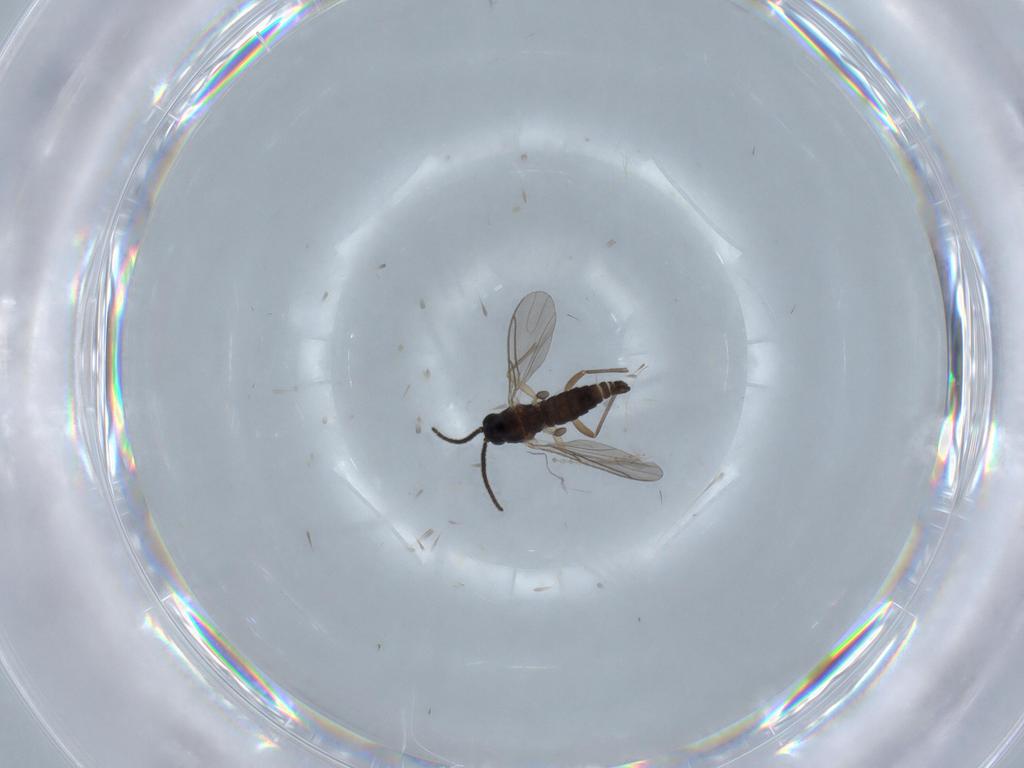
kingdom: Animalia
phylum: Arthropoda
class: Insecta
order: Diptera
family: Cecidomyiidae
